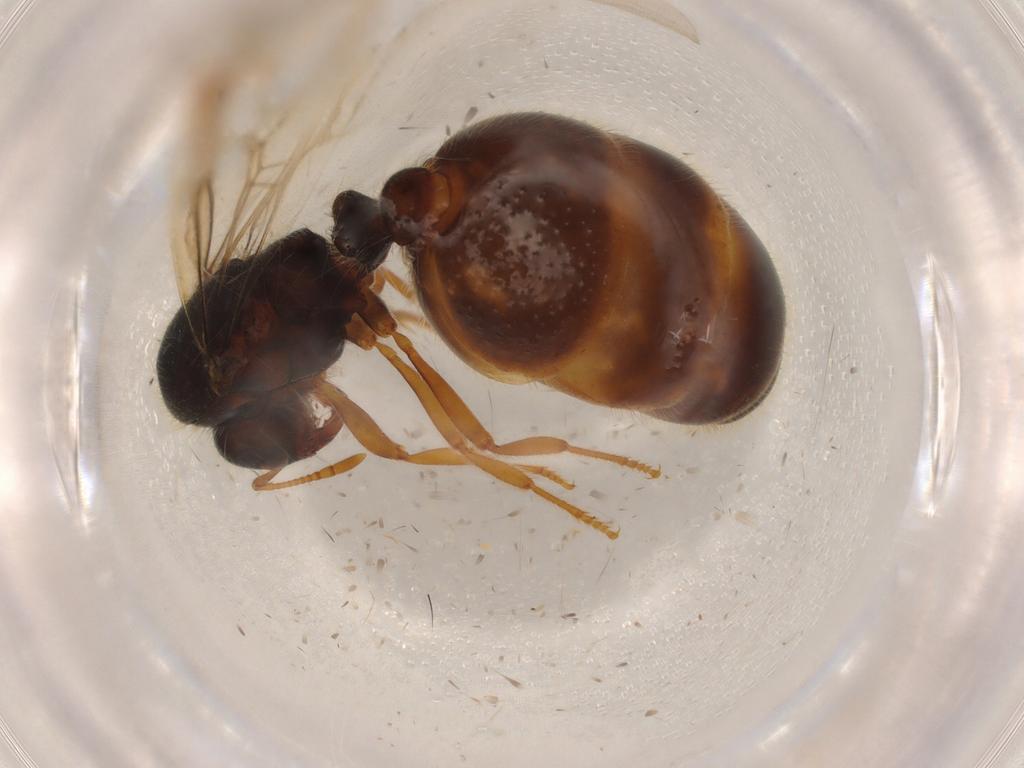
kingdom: Animalia
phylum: Arthropoda
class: Insecta
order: Hymenoptera
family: Formicidae
